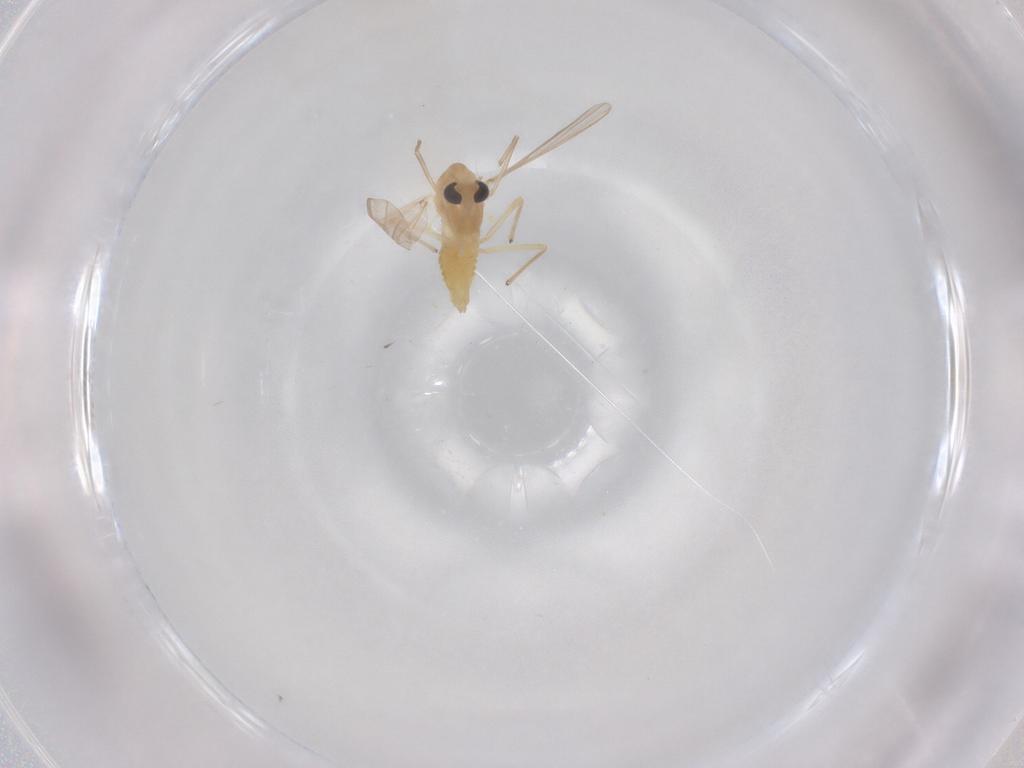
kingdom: Animalia
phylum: Arthropoda
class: Insecta
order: Diptera
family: Chironomidae
